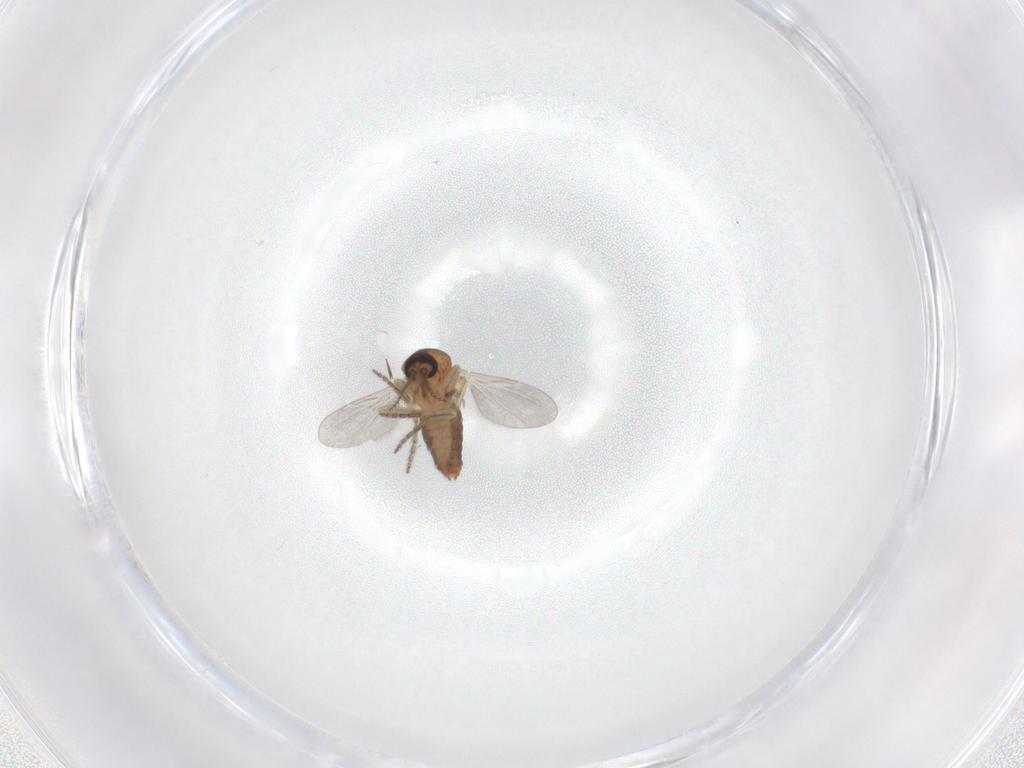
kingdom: Animalia
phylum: Arthropoda
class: Insecta
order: Diptera
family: Ceratopogonidae
